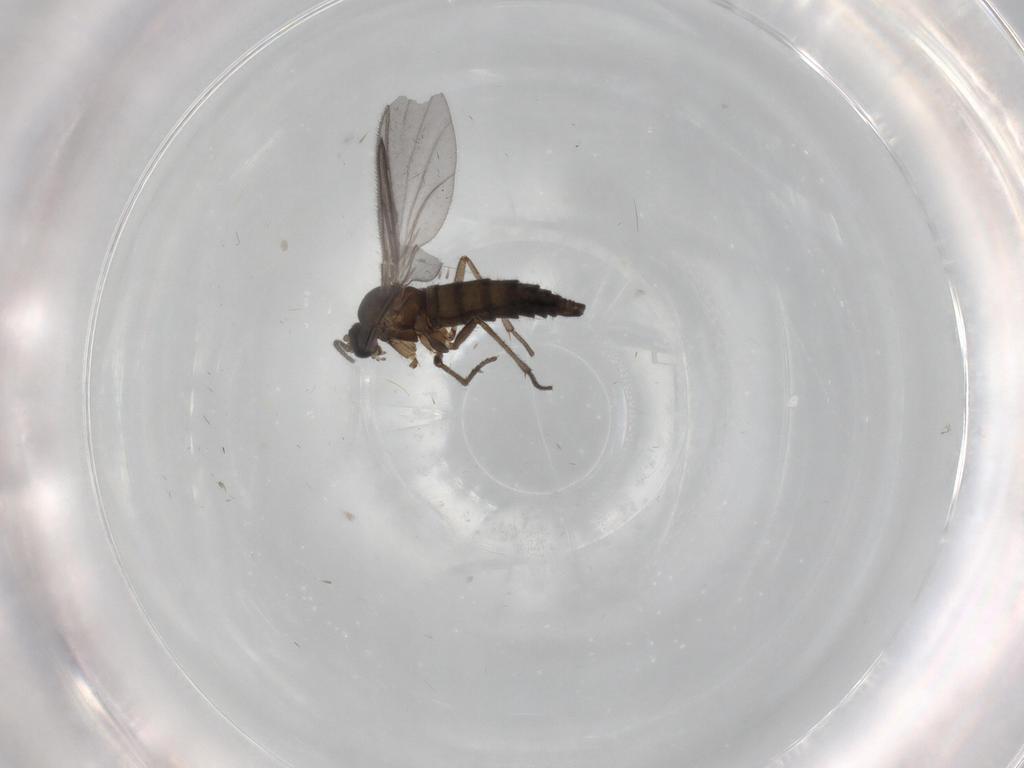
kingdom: Animalia
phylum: Arthropoda
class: Insecta
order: Diptera
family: Sciaridae
